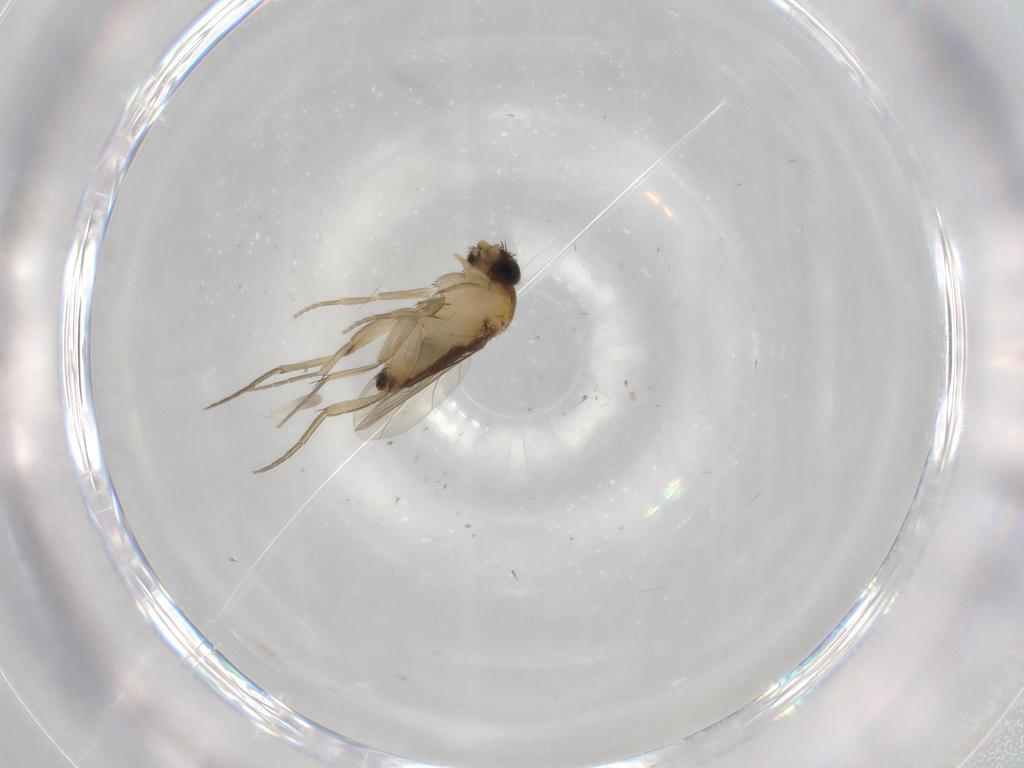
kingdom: Animalia
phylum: Arthropoda
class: Insecta
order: Diptera
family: Phoridae
